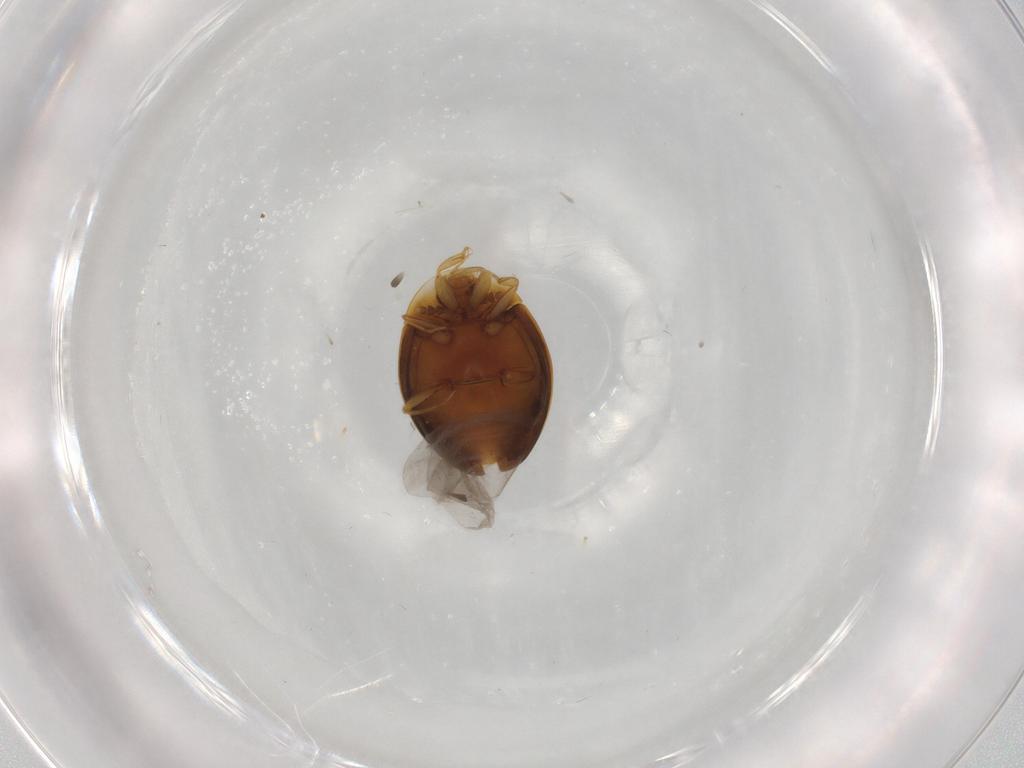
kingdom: Animalia
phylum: Arthropoda
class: Insecta
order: Coleoptera
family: Corylophidae
